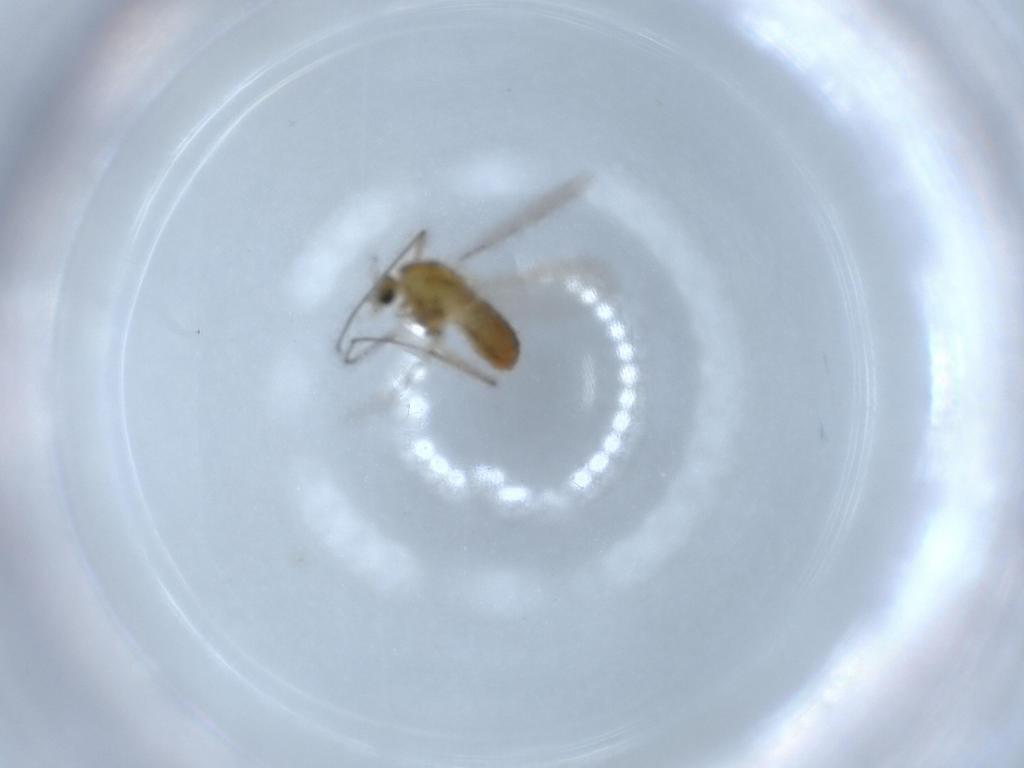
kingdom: Animalia
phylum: Arthropoda
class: Insecta
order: Diptera
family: Chironomidae
